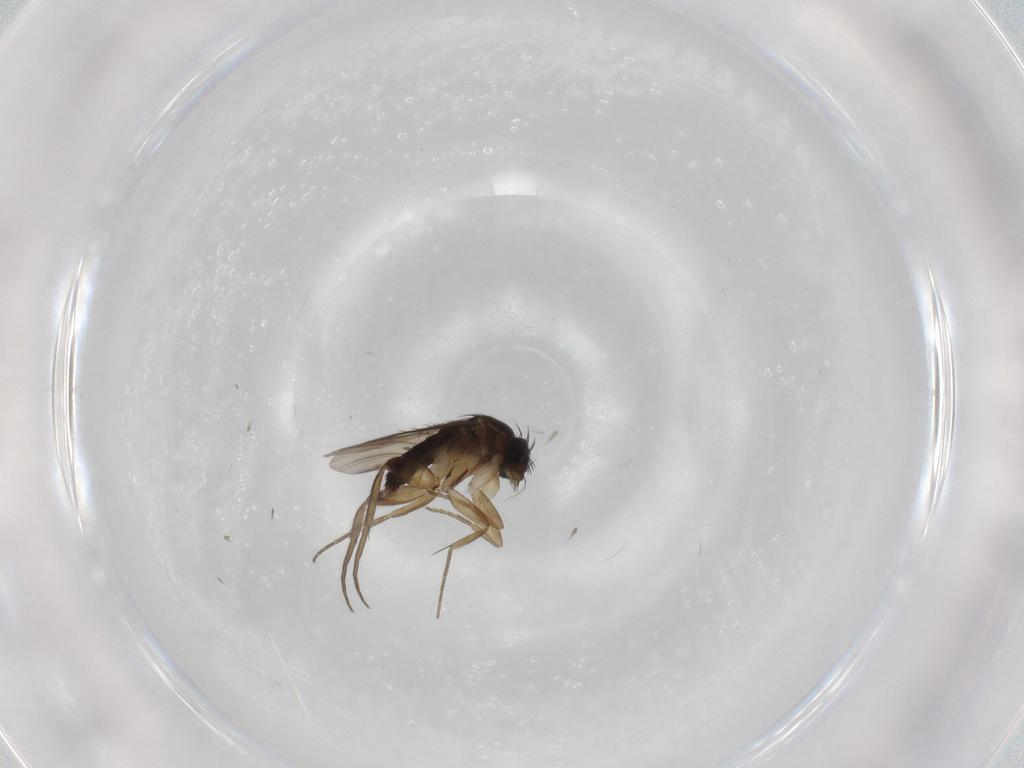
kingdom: Animalia
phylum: Arthropoda
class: Insecta
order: Diptera
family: Phoridae
